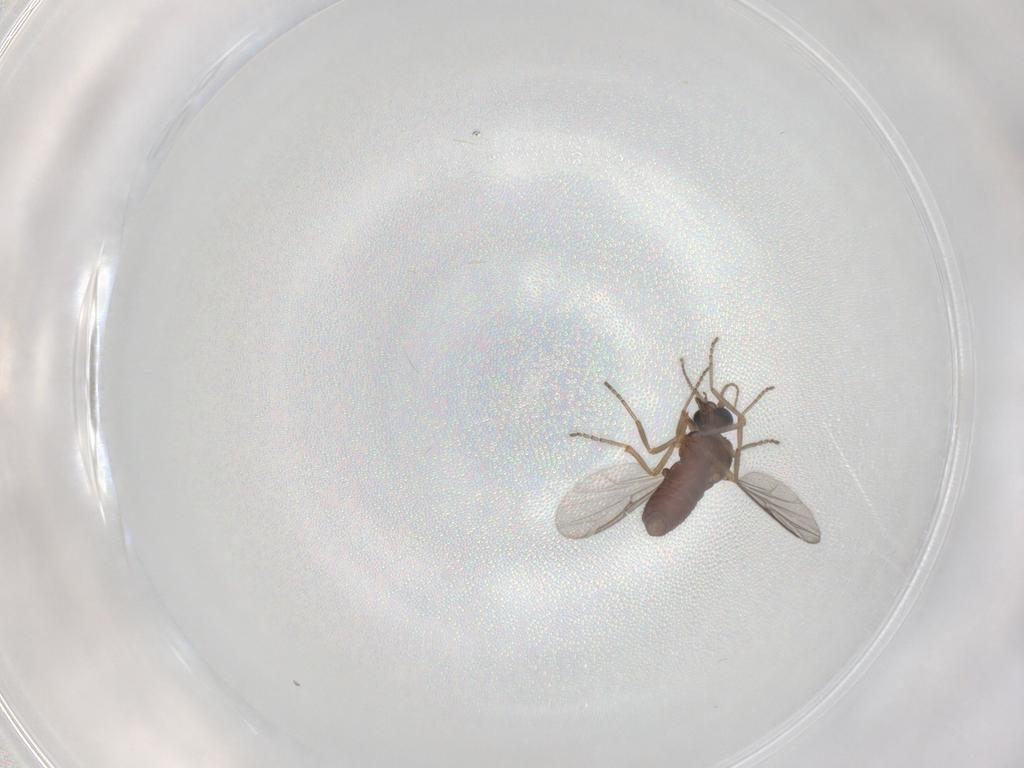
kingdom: Animalia
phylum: Arthropoda
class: Insecta
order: Diptera
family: Ceratopogonidae
